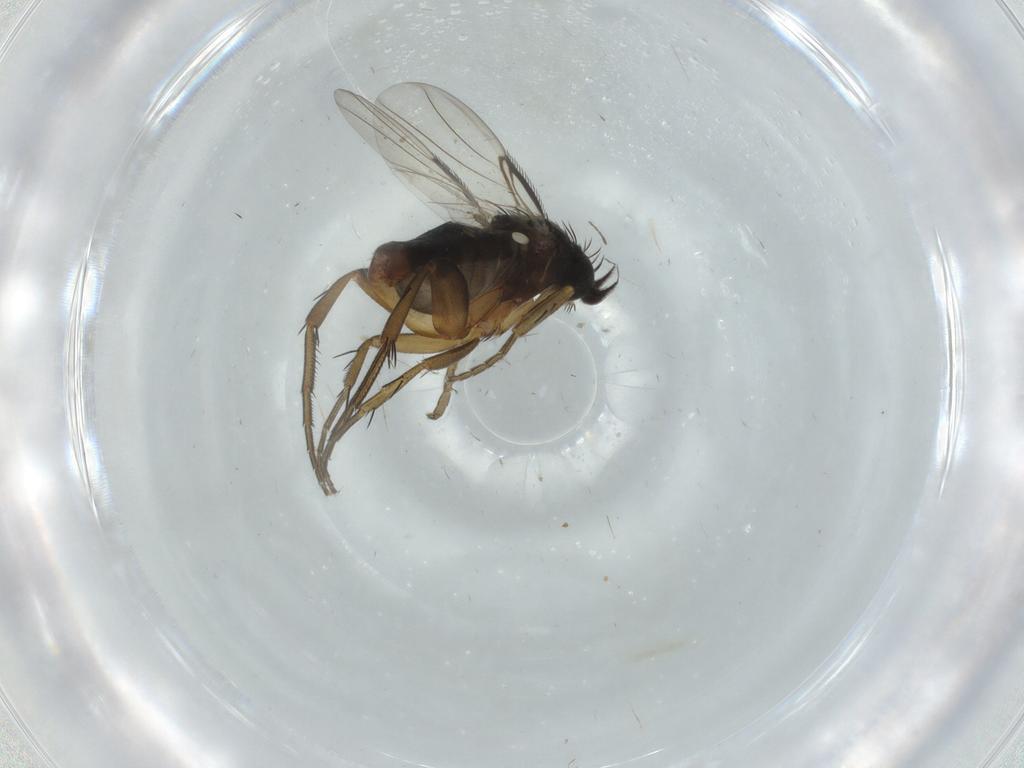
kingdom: Animalia
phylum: Arthropoda
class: Insecta
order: Diptera
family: Phoridae
